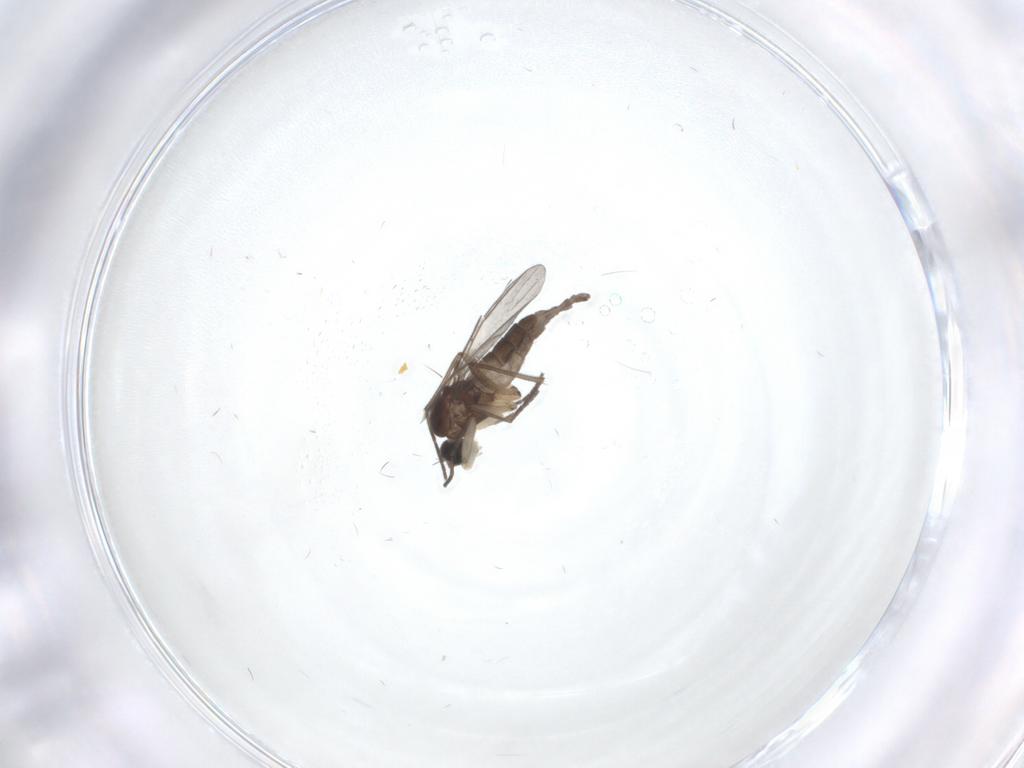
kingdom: Animalia
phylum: Arthropoda
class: Insecta
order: Diptera
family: Sciaridae
